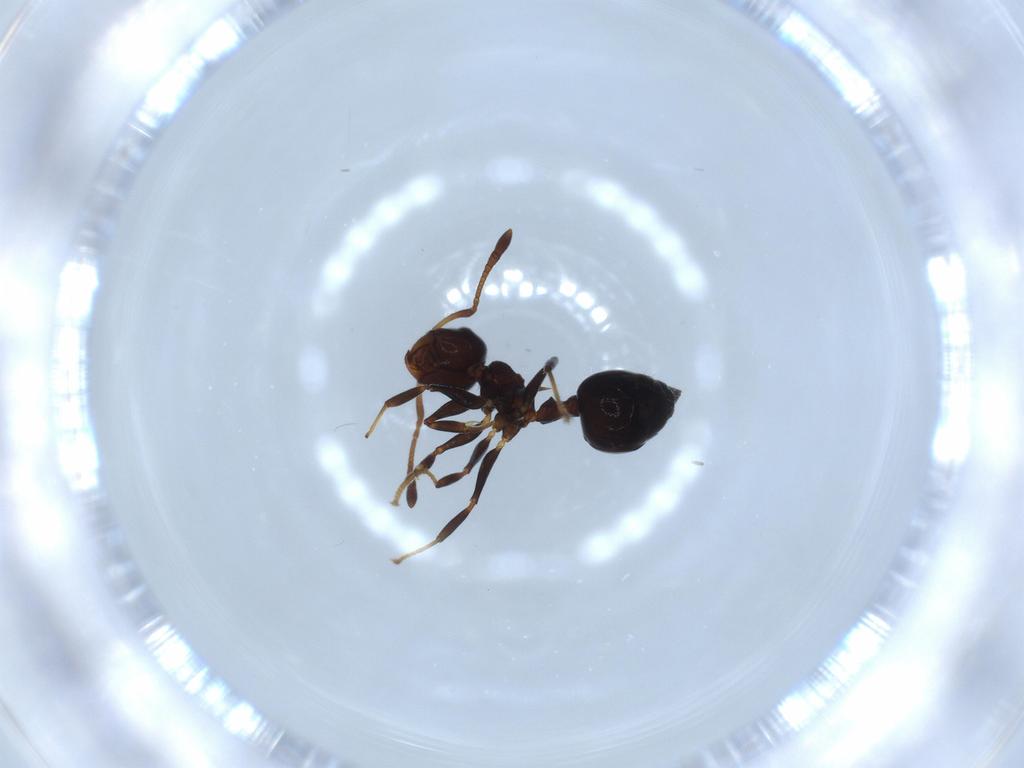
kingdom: Animalia
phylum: Arthropoda
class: Insecta
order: Hymenoptera
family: Formicidae
